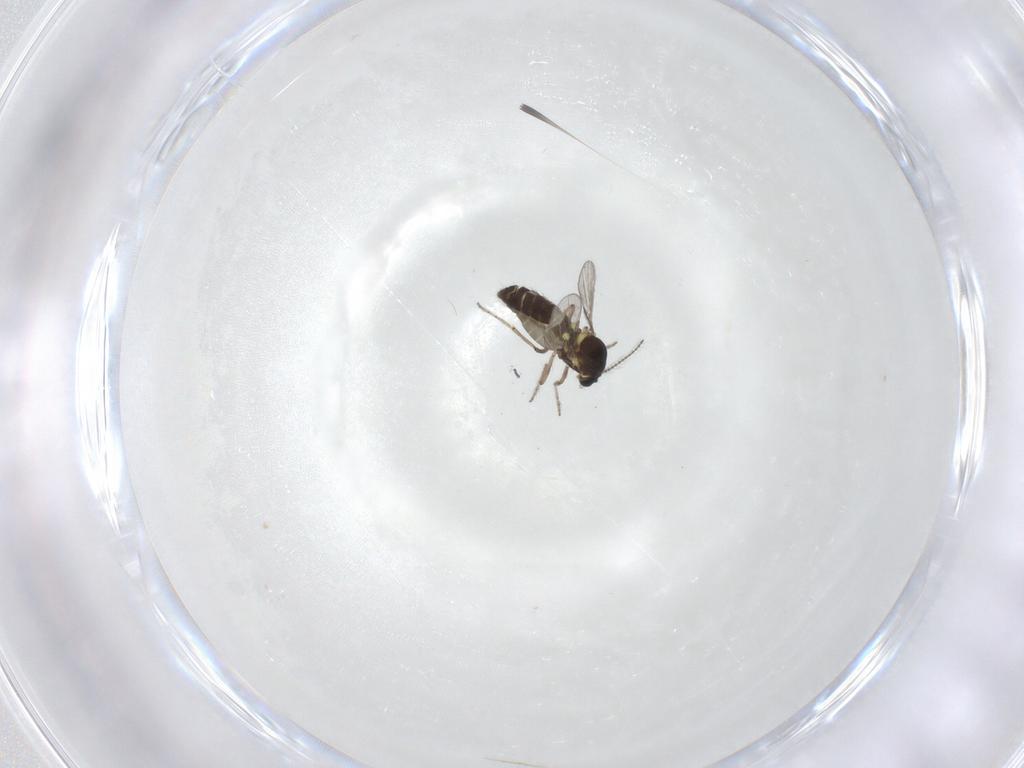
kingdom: Animalia
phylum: Arthropoda
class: Insecta
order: Diptera
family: Ceratopogonidae
